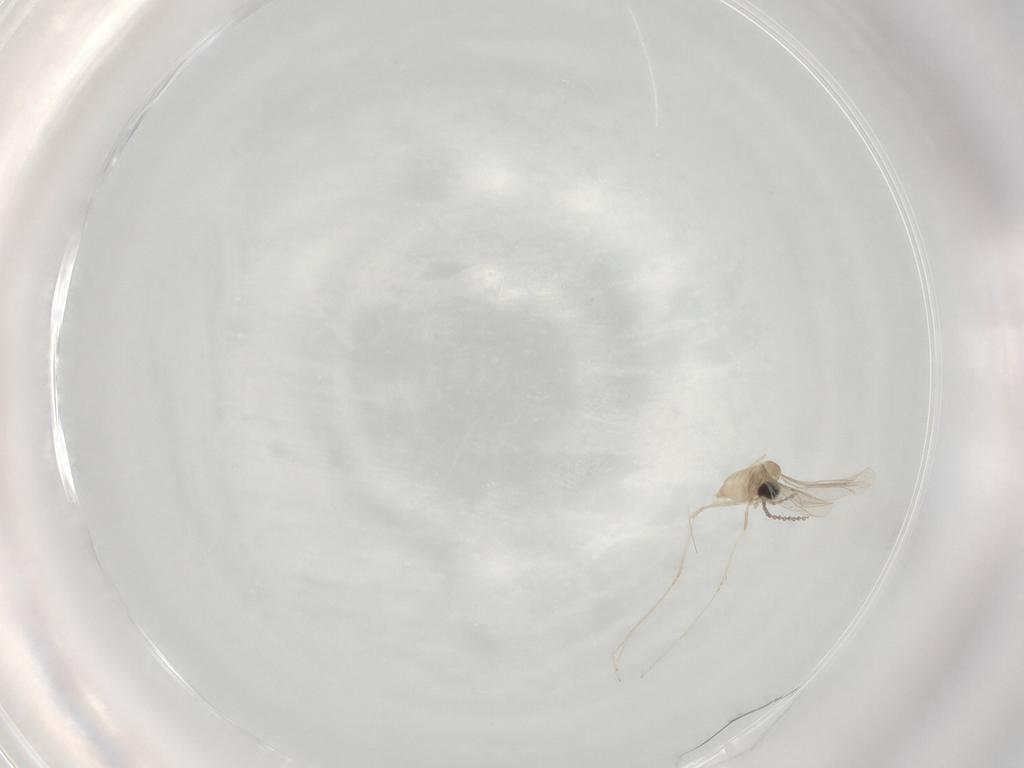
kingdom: Animalia
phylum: Arthropoda
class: Insecta
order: Diptera
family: Cecidomyiidae
